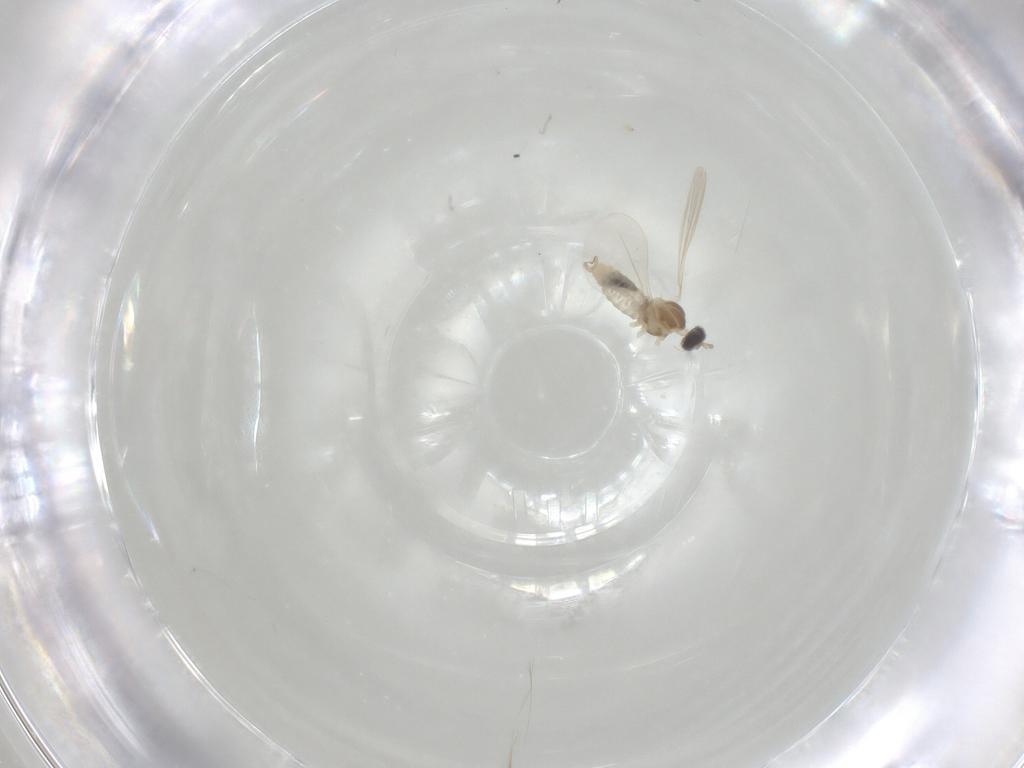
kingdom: Animalia
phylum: Arthropoda
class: Insecta
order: Diptera
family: Cecidomyiidae
